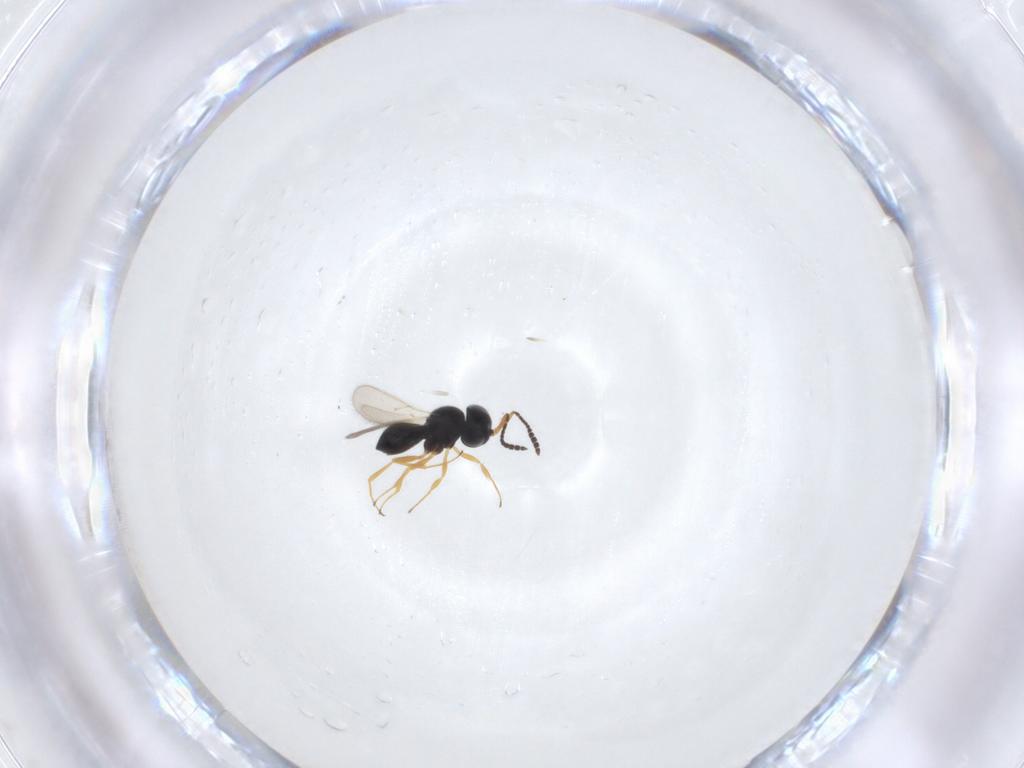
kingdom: Animalia
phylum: Arthropoda
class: Insecta
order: Hymenoptera
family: Scelionidae
